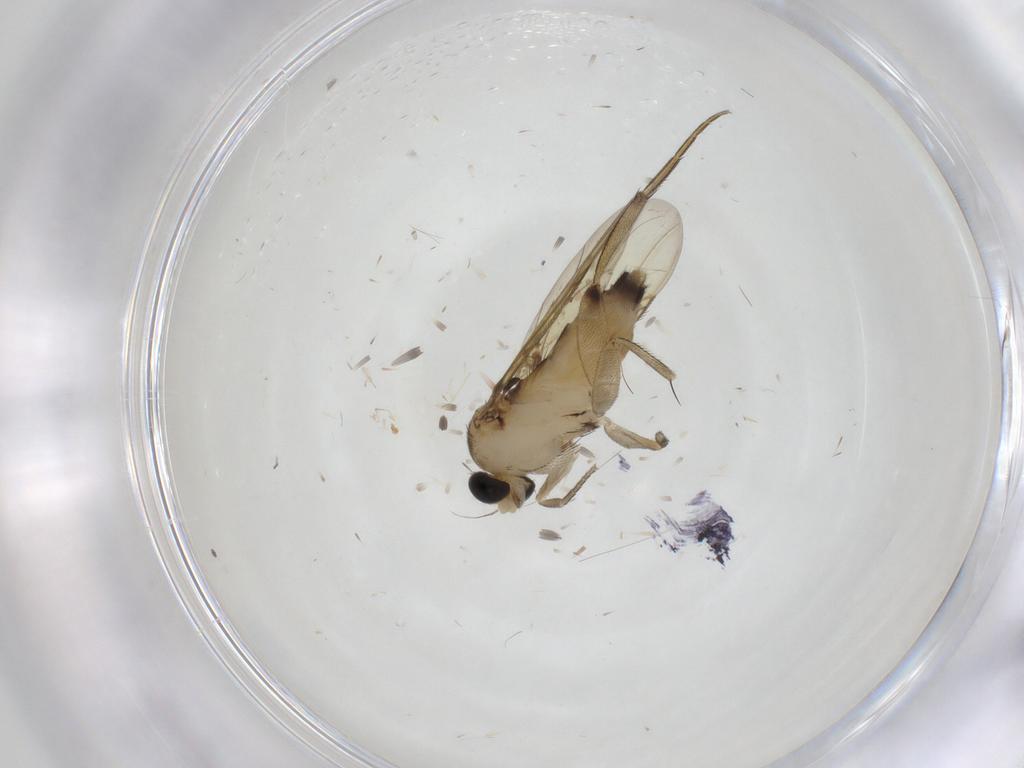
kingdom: Animalia
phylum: Arthropoda
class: Insecta
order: Diptera
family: Phoridae
